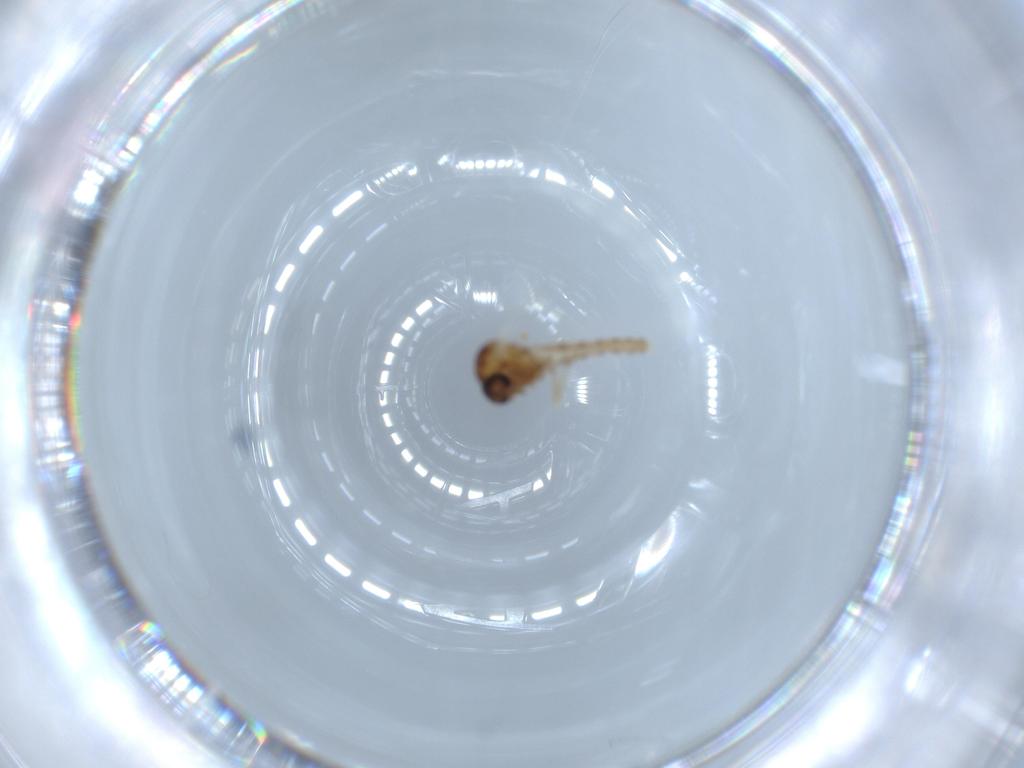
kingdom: Animalia
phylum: Arthropoda
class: Insecta
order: Diptera
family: Ceratopogonidae
